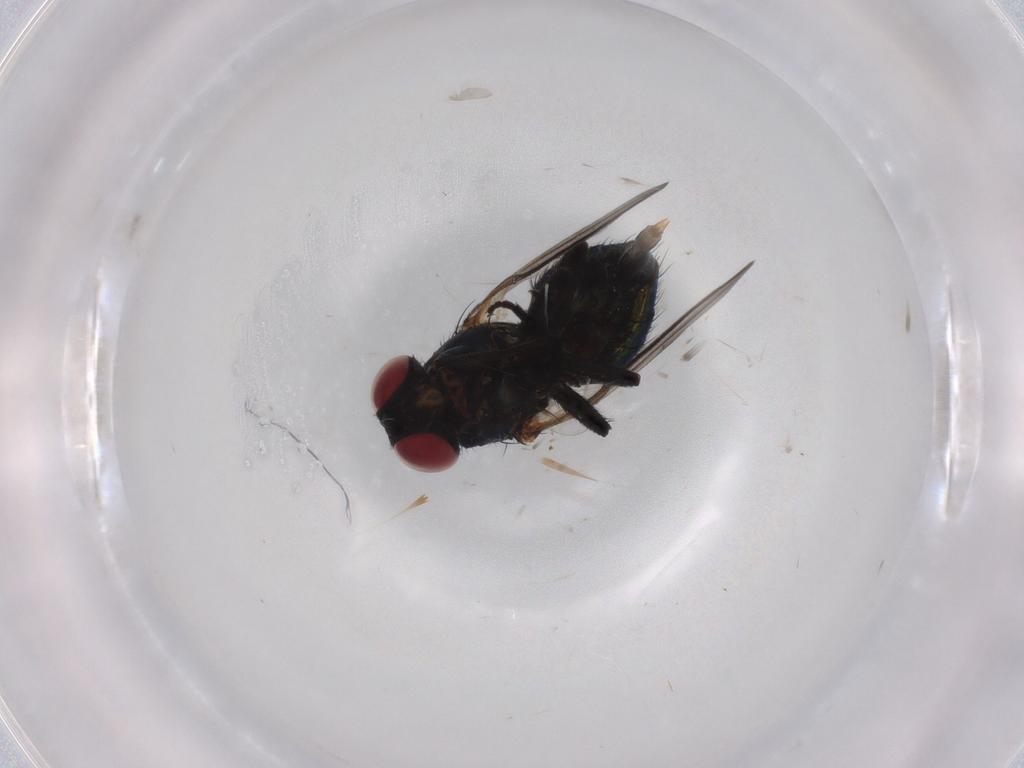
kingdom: Animalia
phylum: Arthropoda
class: Insecta
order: Diptera
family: Agromyzidae
